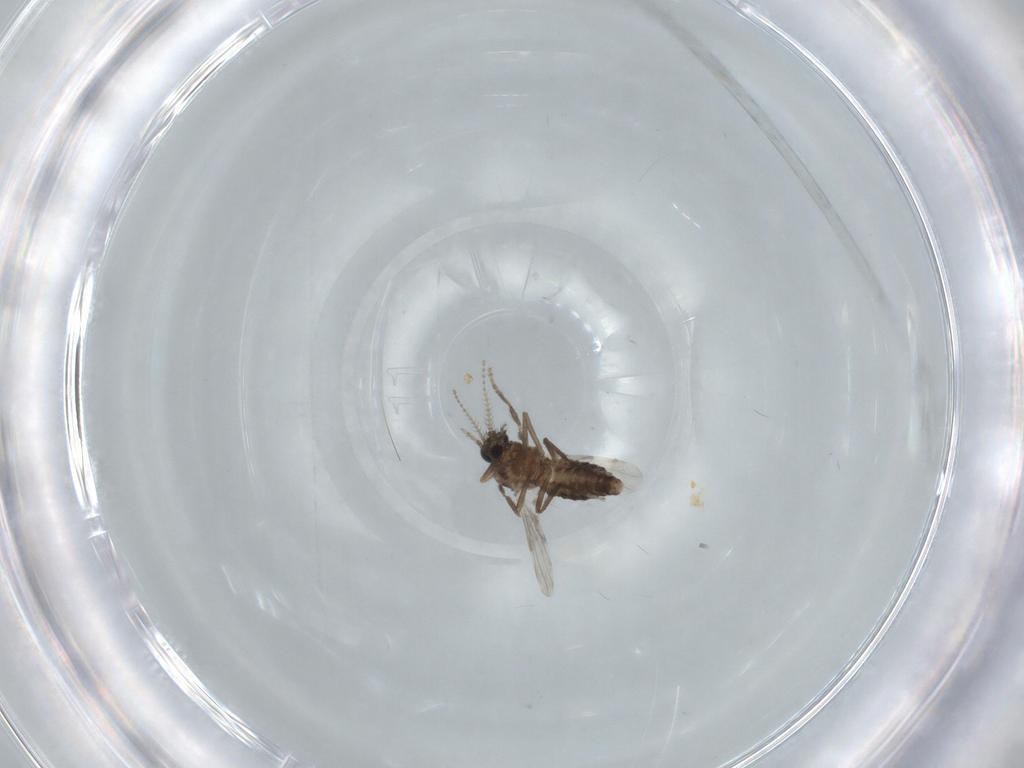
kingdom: Animalia
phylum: Arthropoda
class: Insecta
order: Diptera
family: Ceratopogonidae
